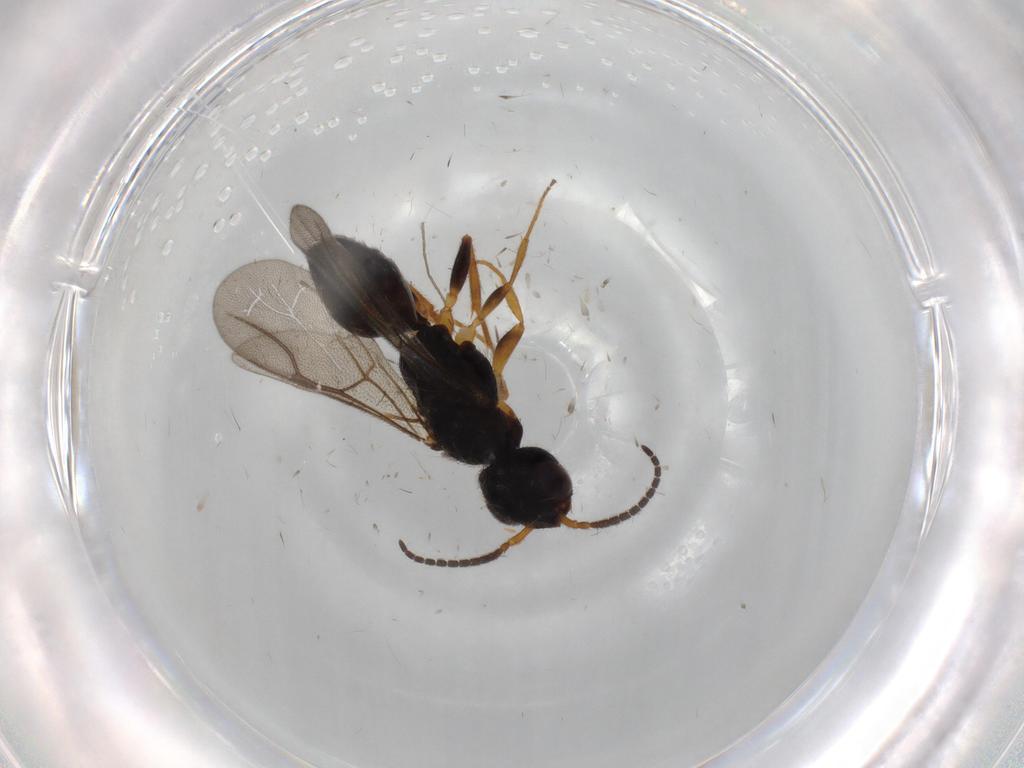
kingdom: Animalia
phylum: Arthropoda
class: Insecta
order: Hymenoptera
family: Bethylidae
